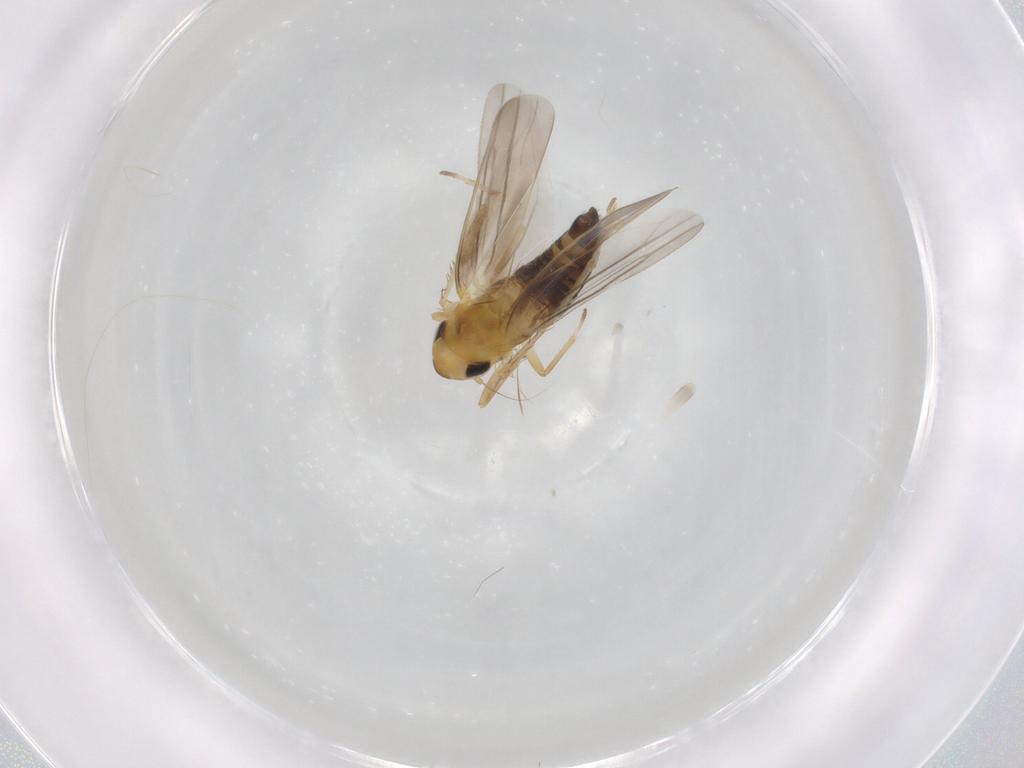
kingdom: Animalia
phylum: Arthropoda
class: Insecta
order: Hemiptera
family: Cicadellidae
